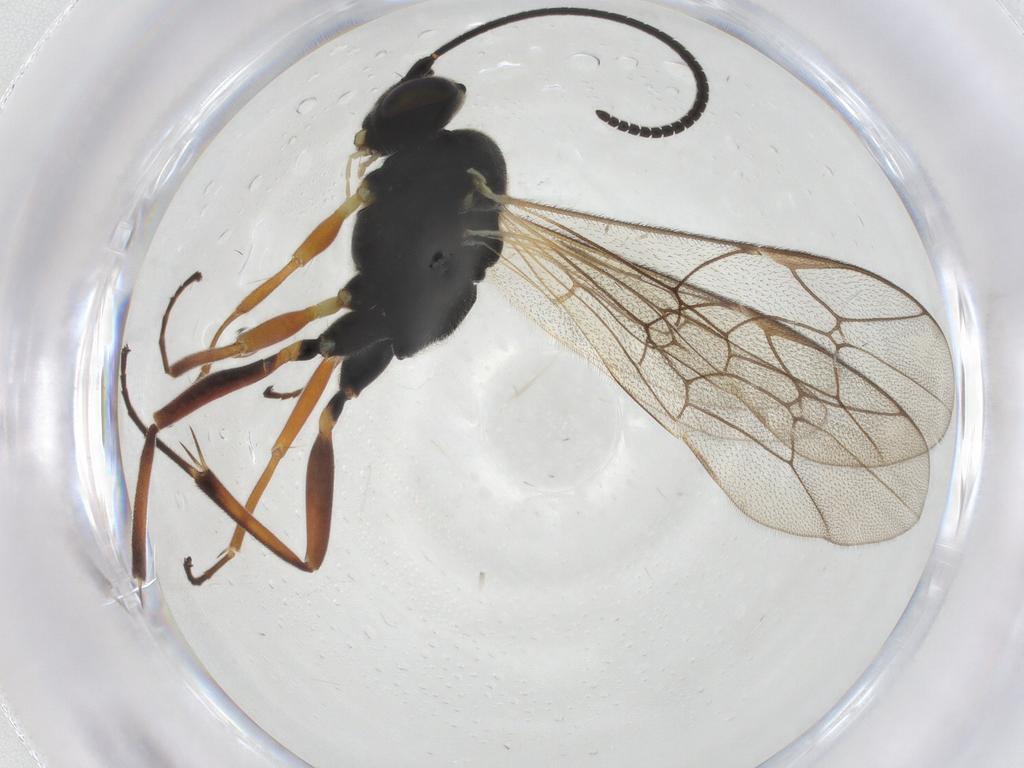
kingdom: Animalia
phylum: Arthropoda
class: Insecta
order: Hymenoptera
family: Ichneumonidae
